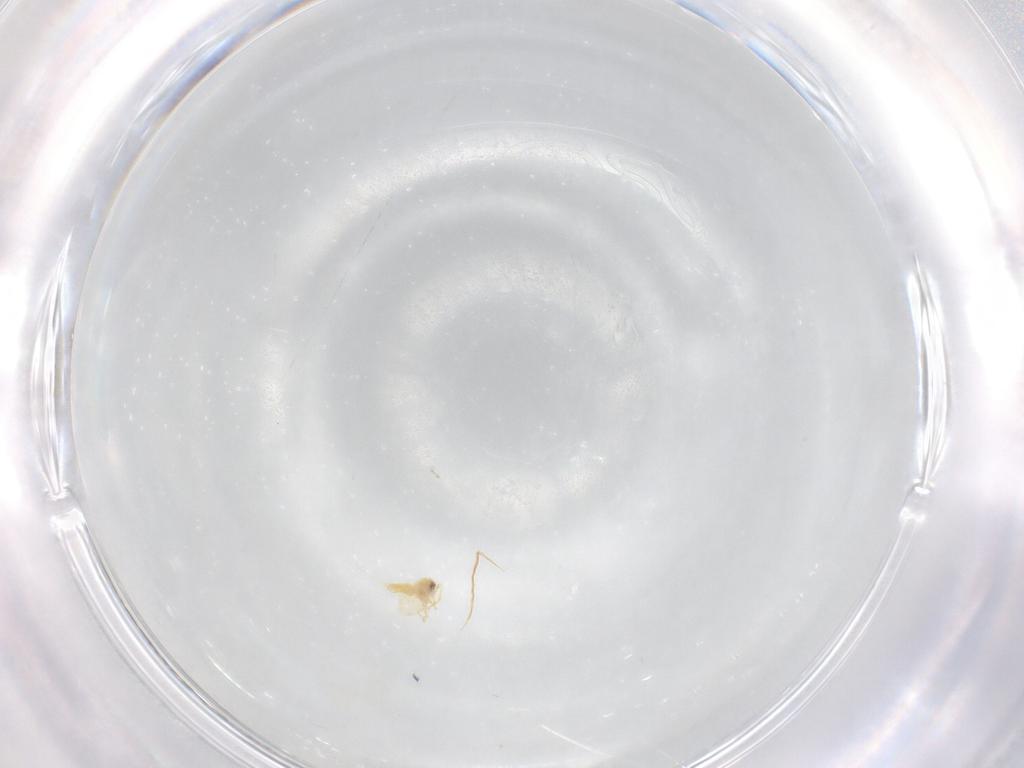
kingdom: Animalia
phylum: Arthropoda
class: Insecta
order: Hemiptera
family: Aleyrodidae
